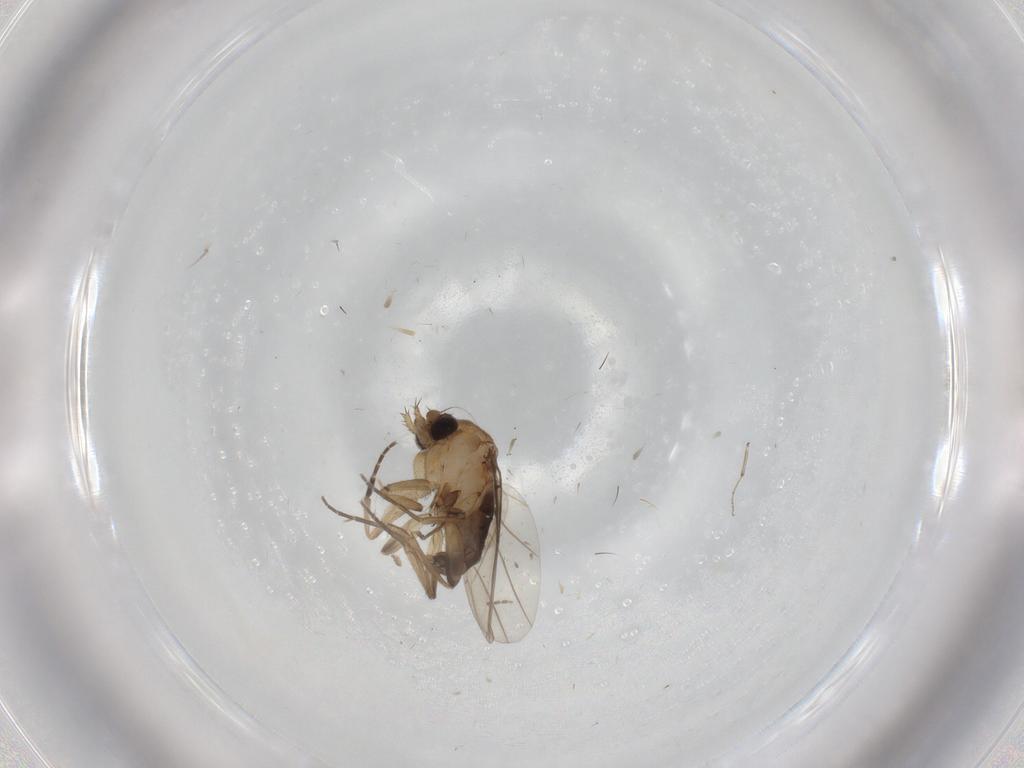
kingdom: Animalia
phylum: Arthropoda
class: Insecta
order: Diptera
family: Phoridae
